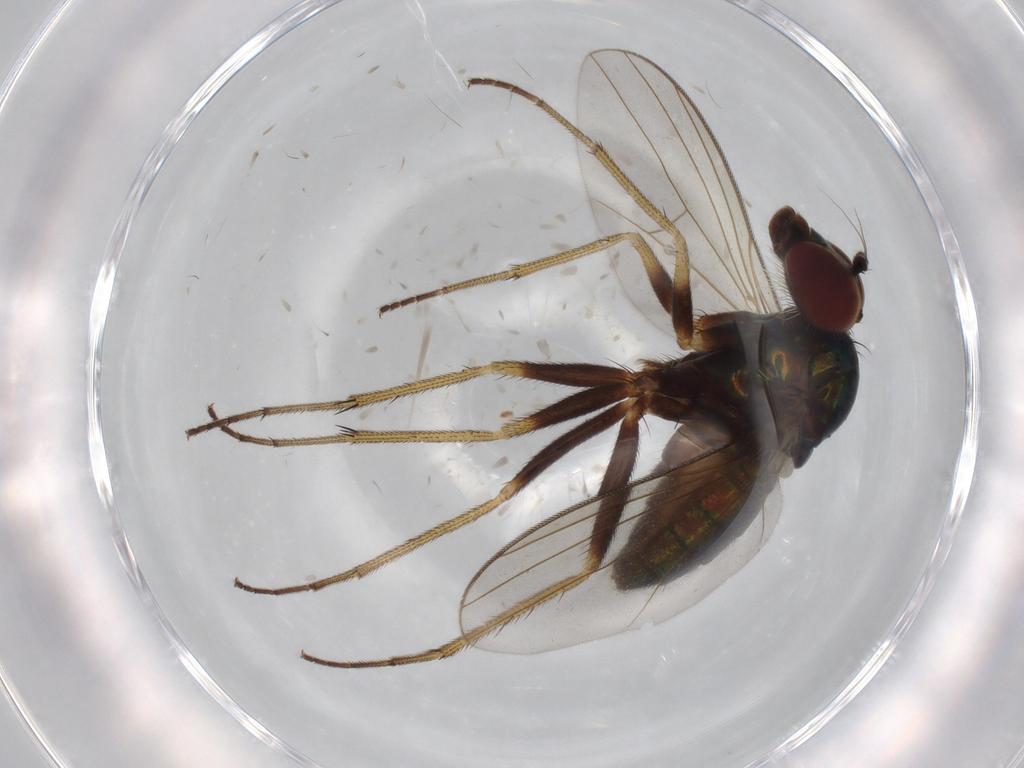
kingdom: Animalia
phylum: Arthropoda
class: Insecta
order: Diptera
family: Dolichopodidae
